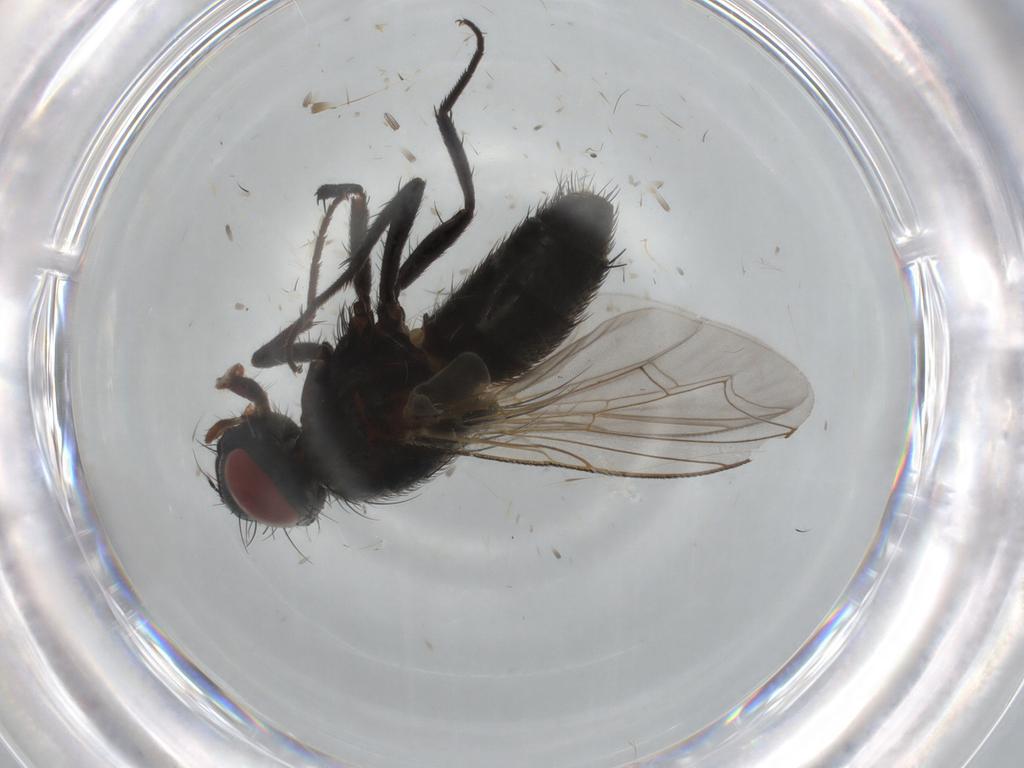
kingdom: Animalia
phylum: Arthropoda
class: Insecta
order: Diptera
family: Sarcophagidae
